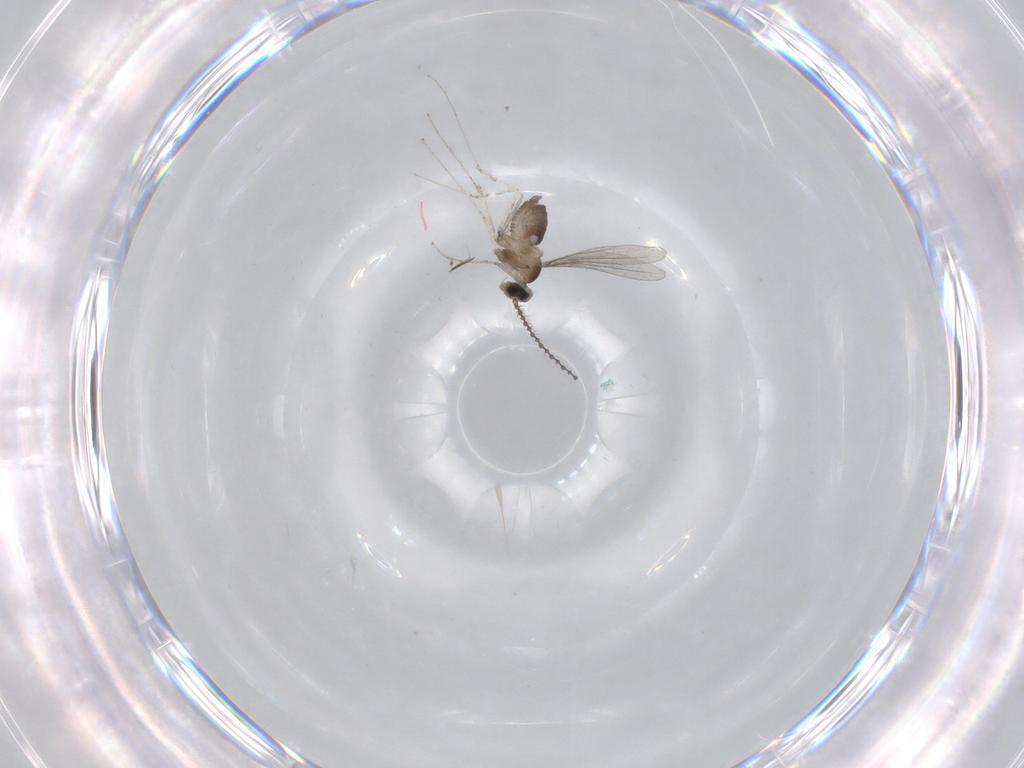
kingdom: Animalia
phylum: Arthropoda
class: Insecta
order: Diptera
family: Cecidomyiidae
